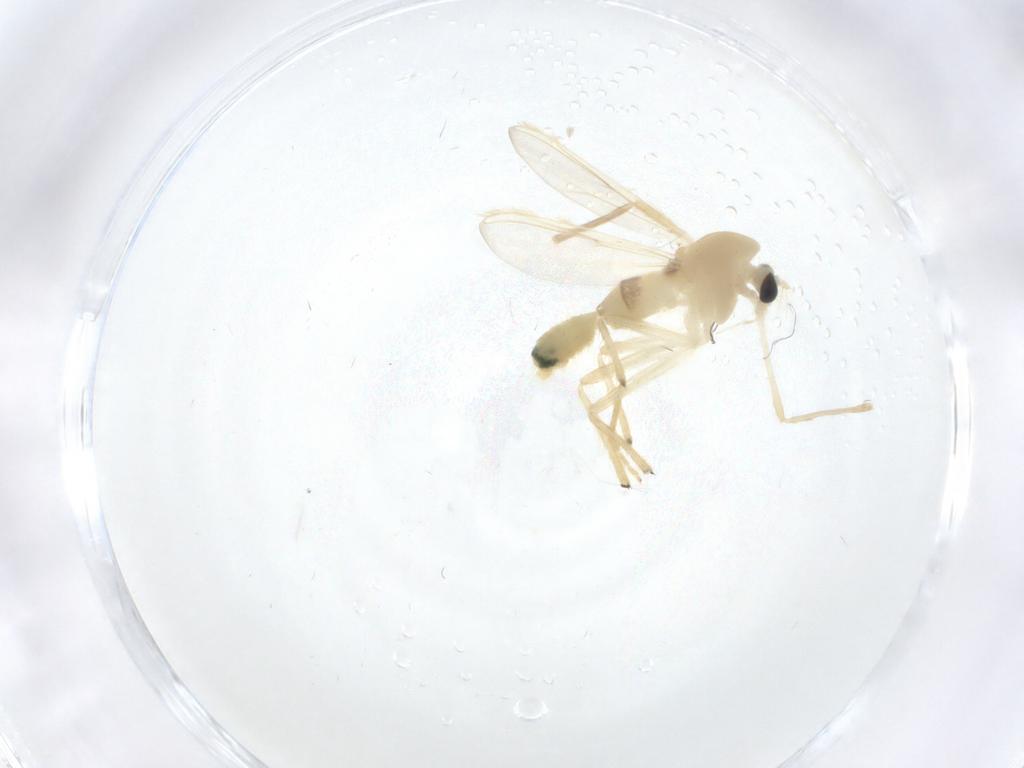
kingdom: Animalia
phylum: Arthropoda
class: Insecta
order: Diptera
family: Chironomidae
